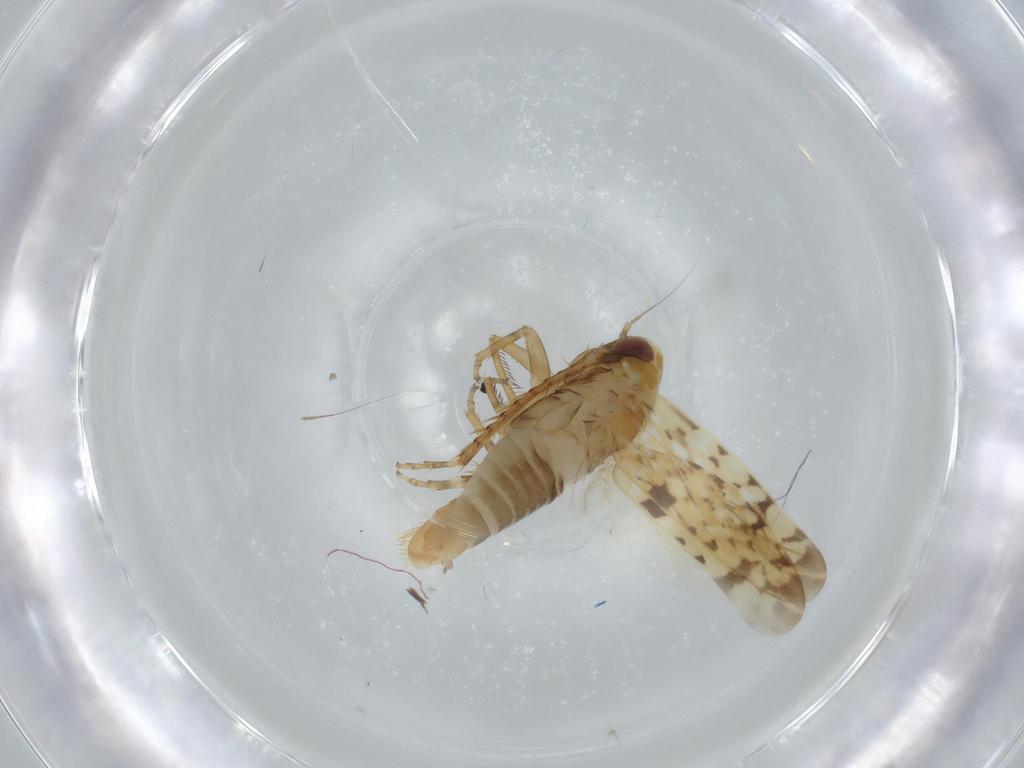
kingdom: Animalia
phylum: Arthropoda
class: Insecta
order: Hemiptera
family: Cicadellidae
